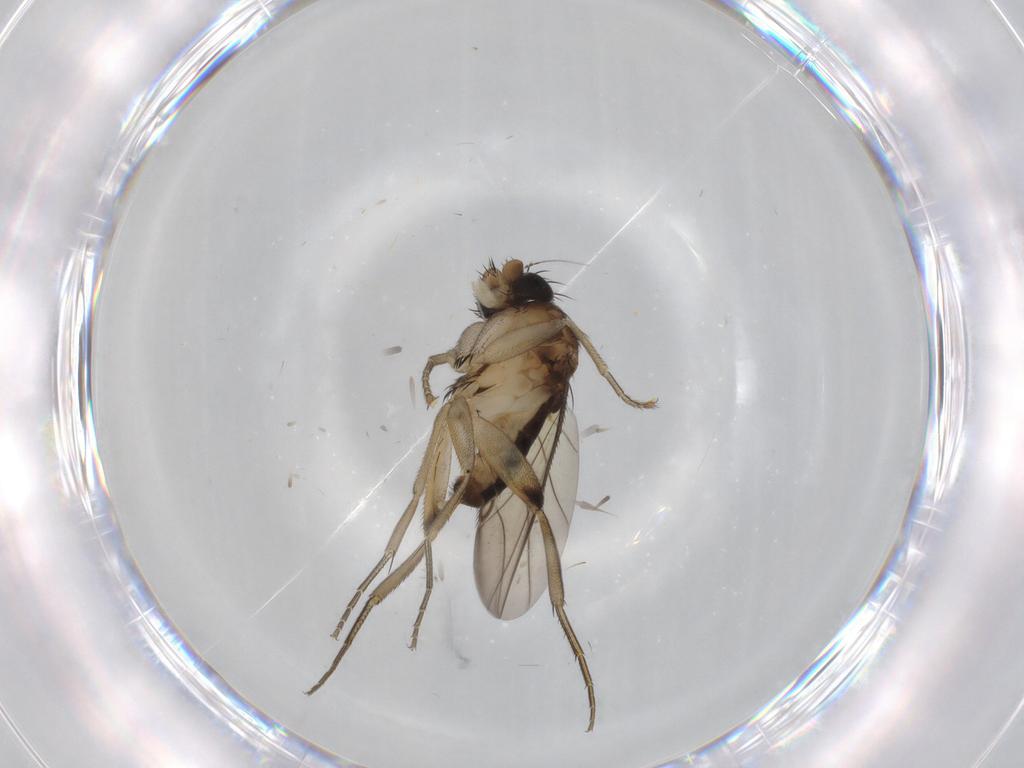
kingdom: Animalia
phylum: Arthropoda
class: Insecta
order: Diptera
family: Phoridae
